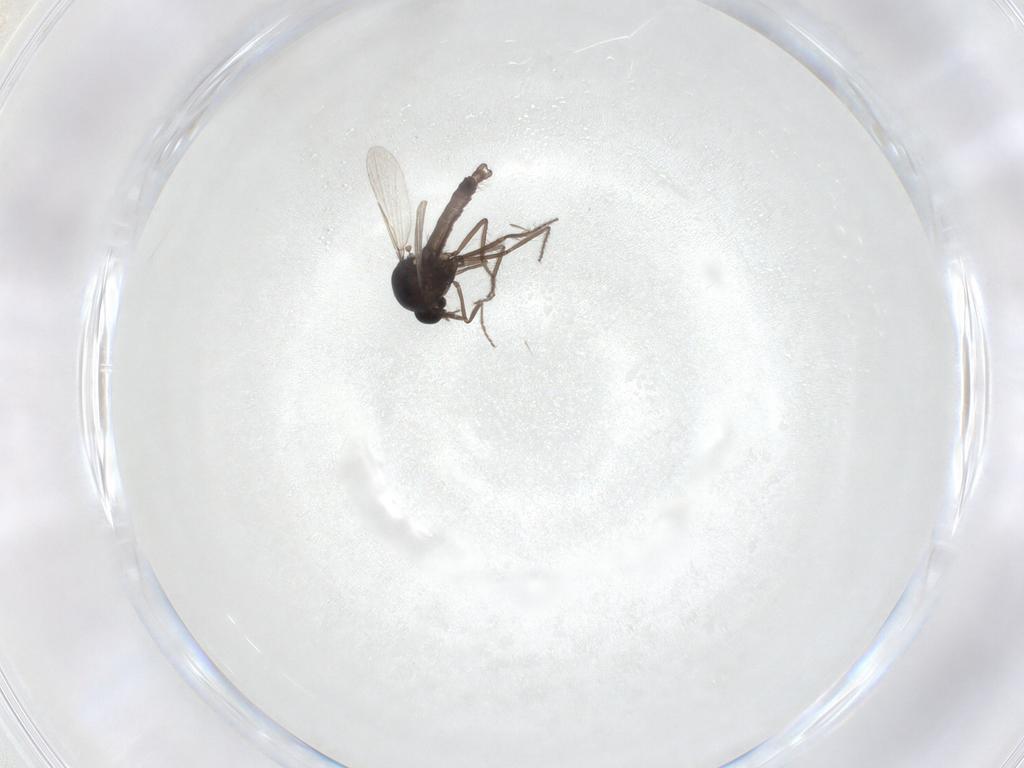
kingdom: Animalia
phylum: Arthropoda
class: Insecta
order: Diptera
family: Ceratopogonidae
